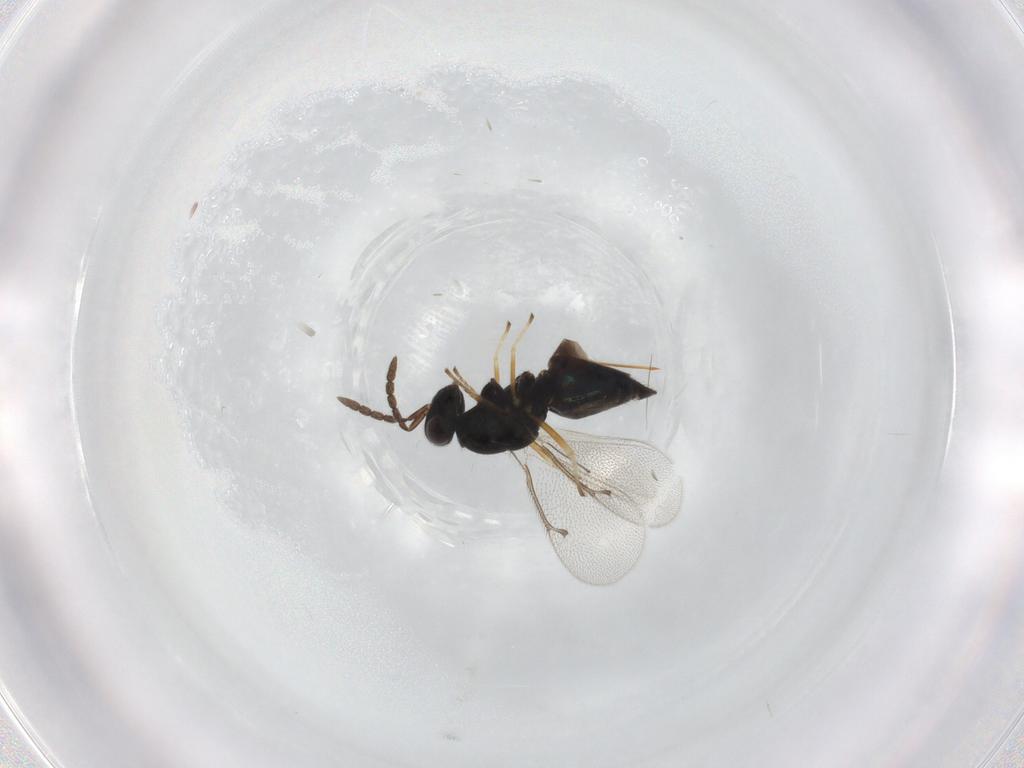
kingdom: Animalia
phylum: Arthropoda
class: Insecta
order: Hymenoptera
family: Eulophidae
